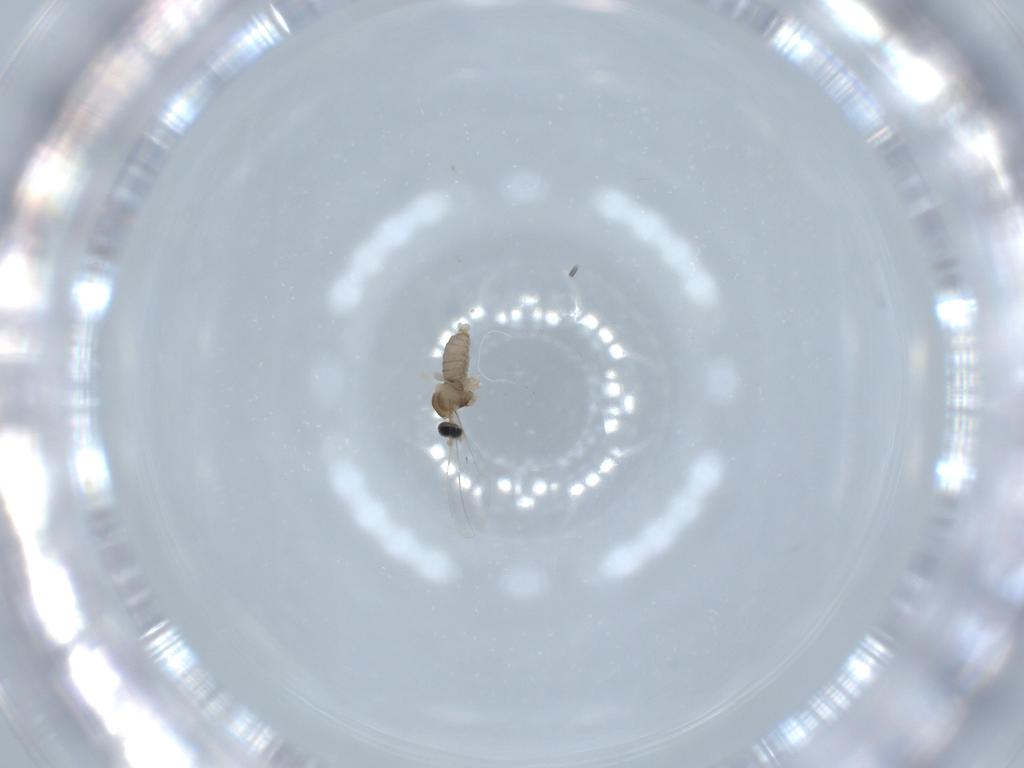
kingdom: Animalia
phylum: Arthropoda
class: Insecta
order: Diptera
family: Cecidomyiidae
